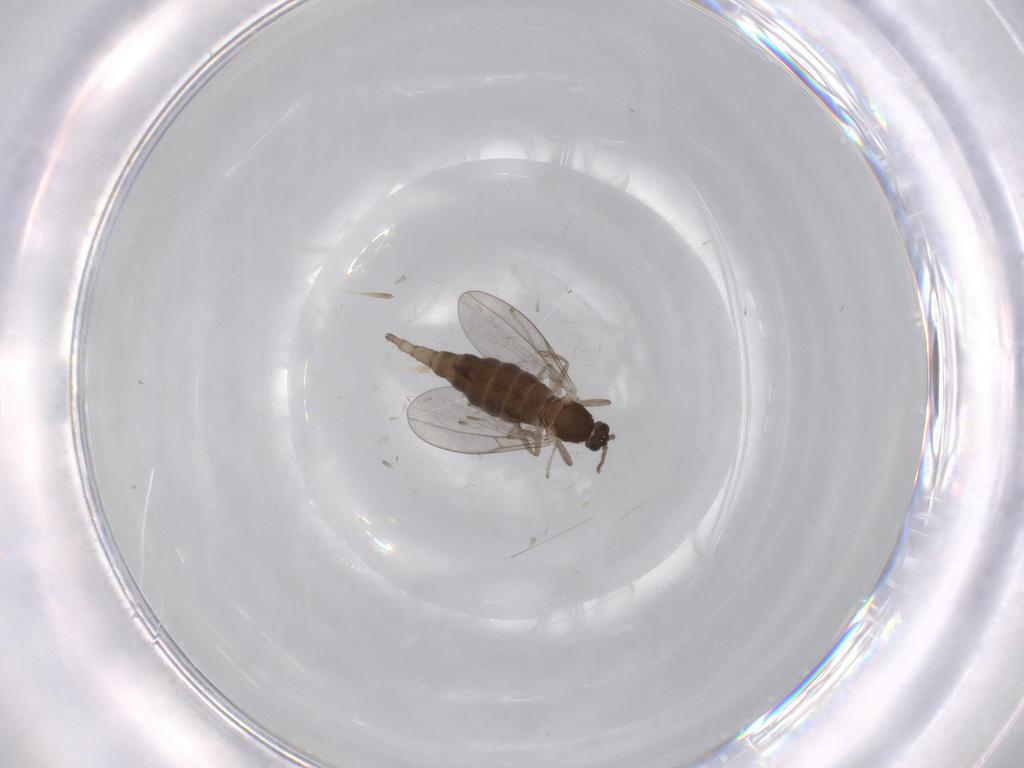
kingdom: Animalia
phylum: Arthropoda
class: Insecta
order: Diptera
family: Cecidomyiidae
